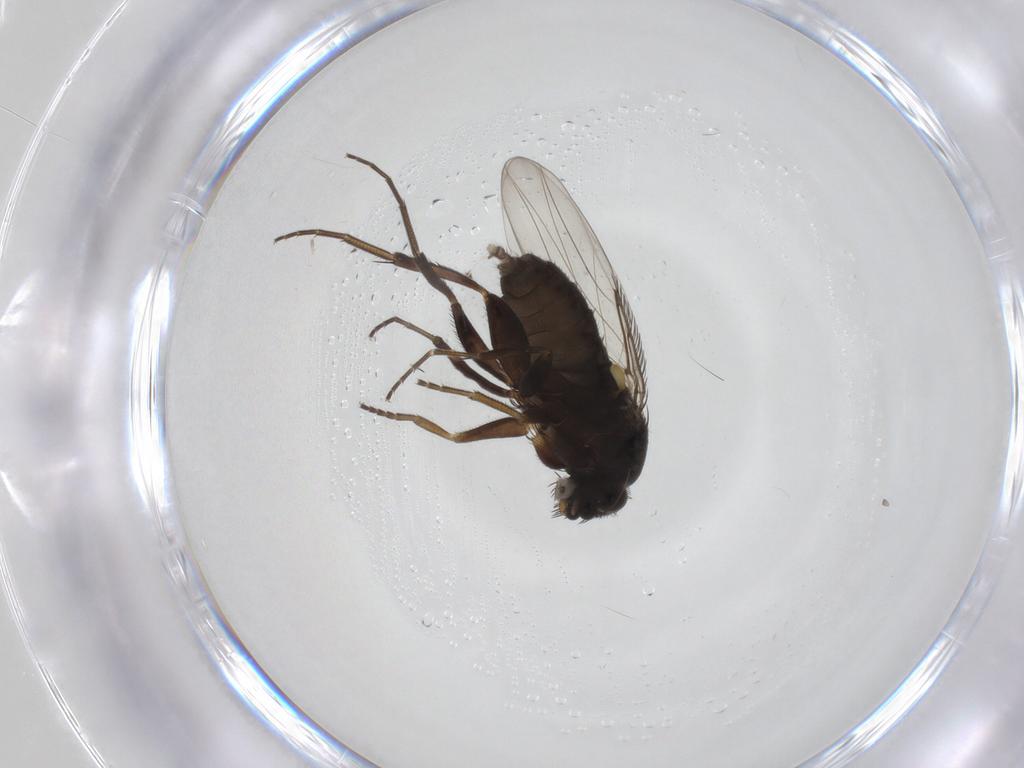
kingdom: Animalia
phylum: Arthropoda
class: Insecta
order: Diptera
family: Phoridae
